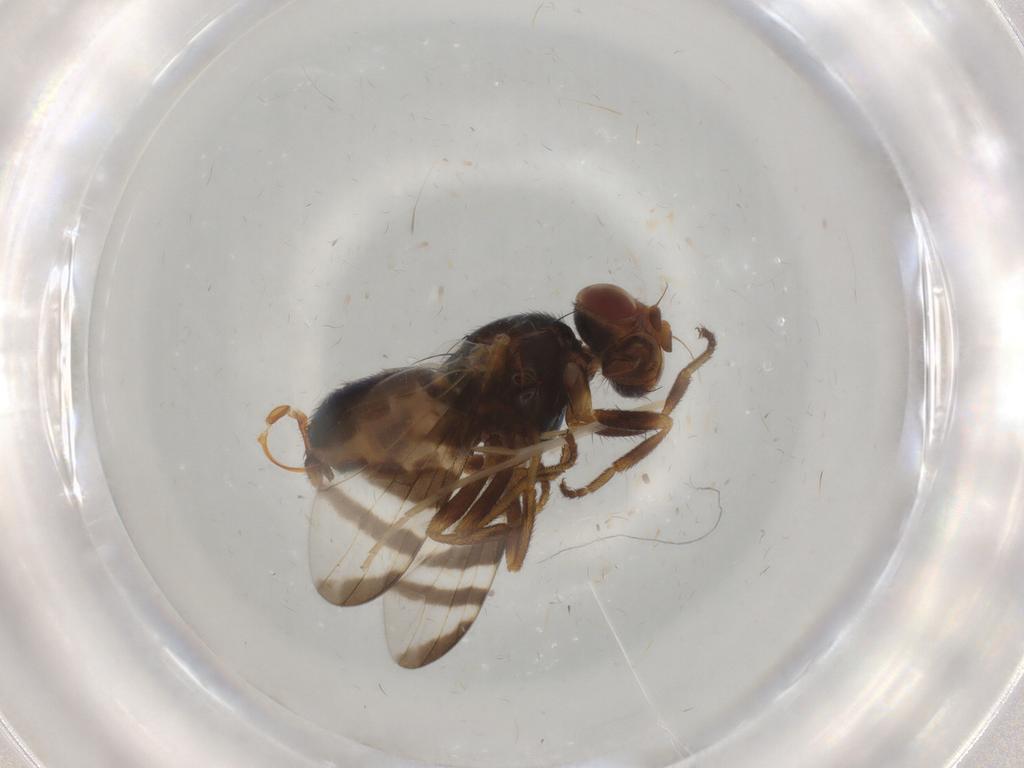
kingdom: Animalia
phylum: Arthropoda
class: Insecta
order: Diptera
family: Platystomatidae
